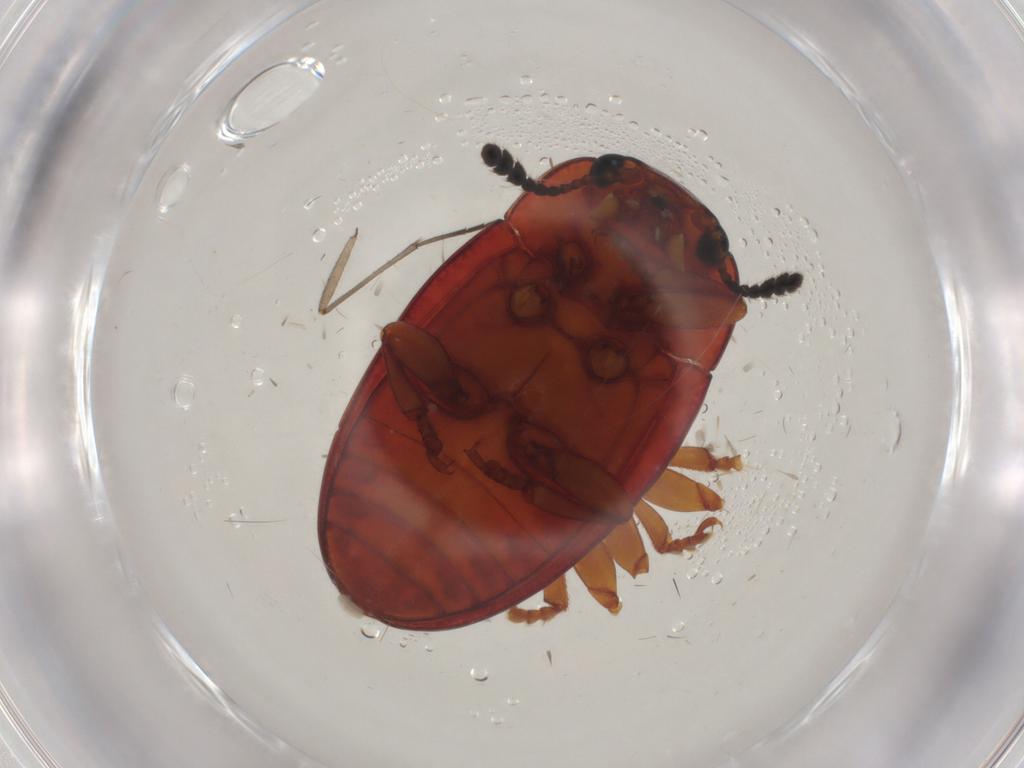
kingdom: Animalia
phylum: Arthropoda
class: Insecta
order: Coleoptera
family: Erotylidae
